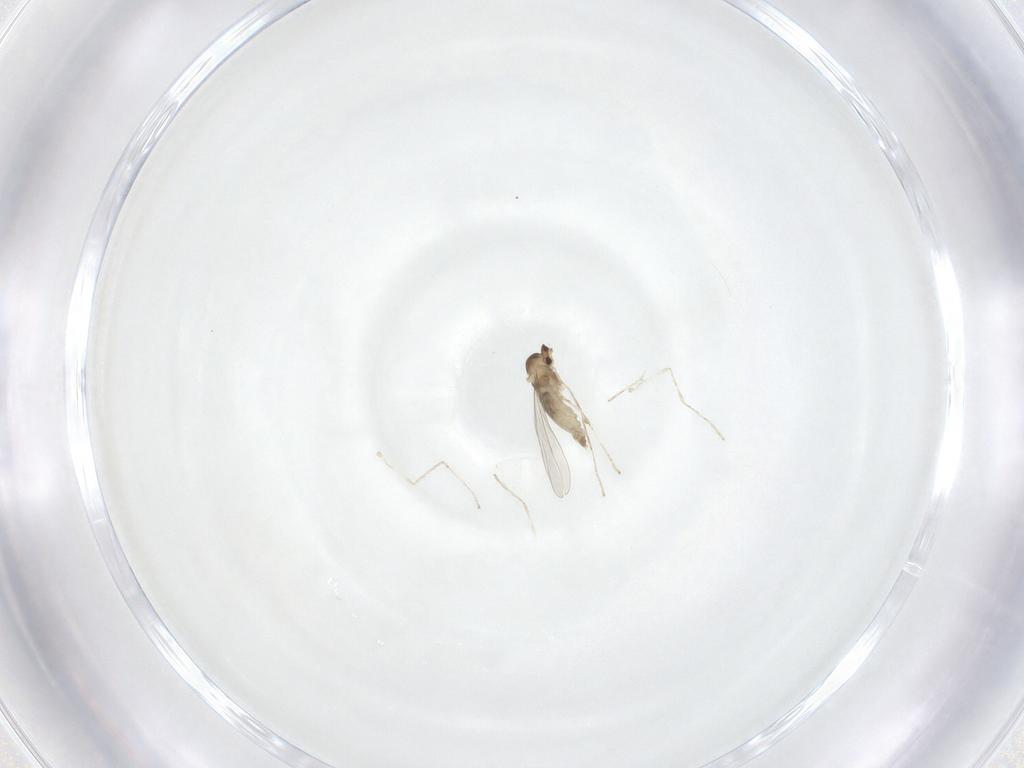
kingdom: Animalia
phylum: Arthropoda
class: Insecta
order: Diptera
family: Cecidomyiidae
